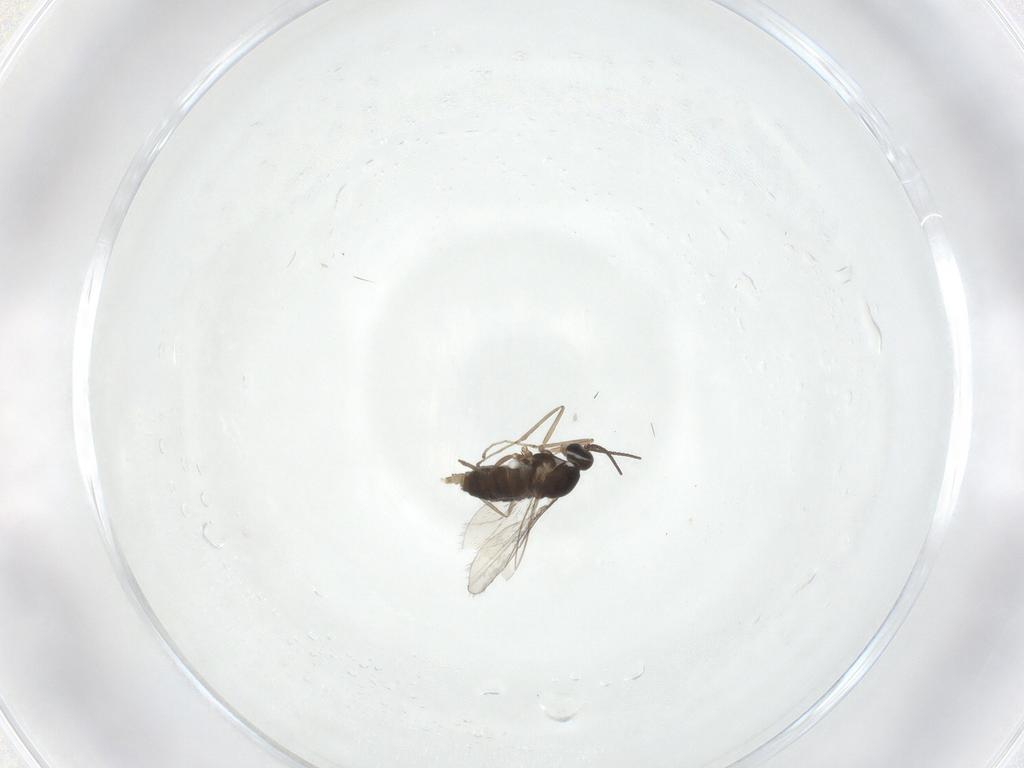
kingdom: Animalia
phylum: Arthropoda
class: Insecta
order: Diptera
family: Cecidomyiidae
